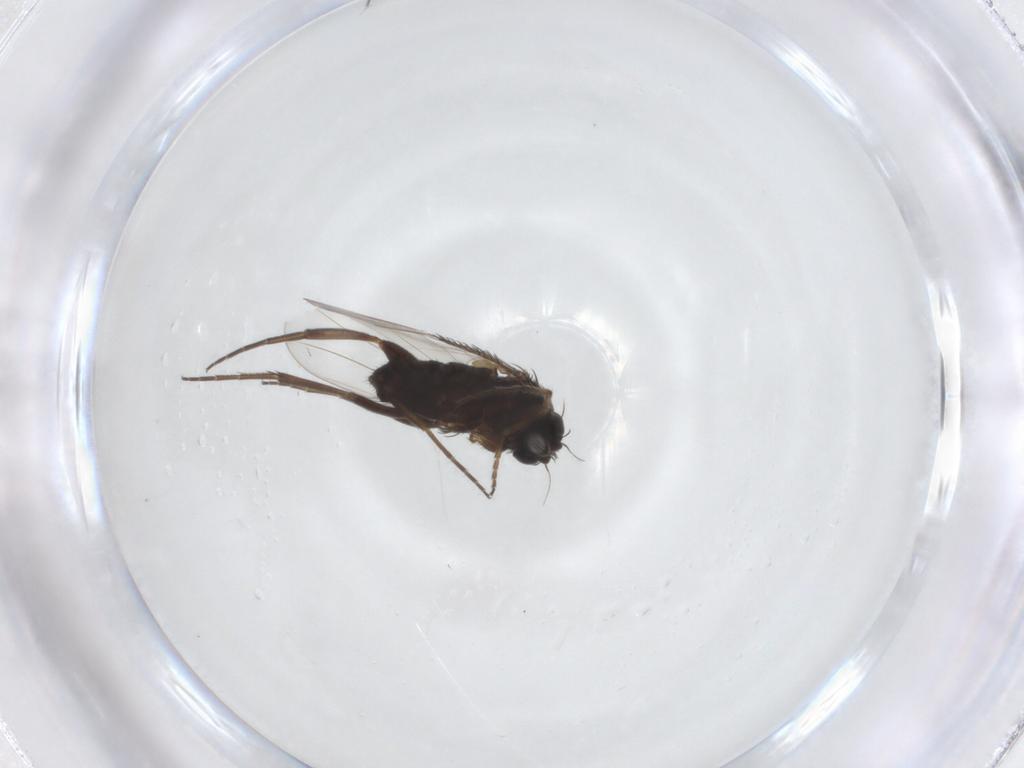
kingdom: Animalia
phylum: Arthropoda
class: Insecta
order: Diptera
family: Phoridae
